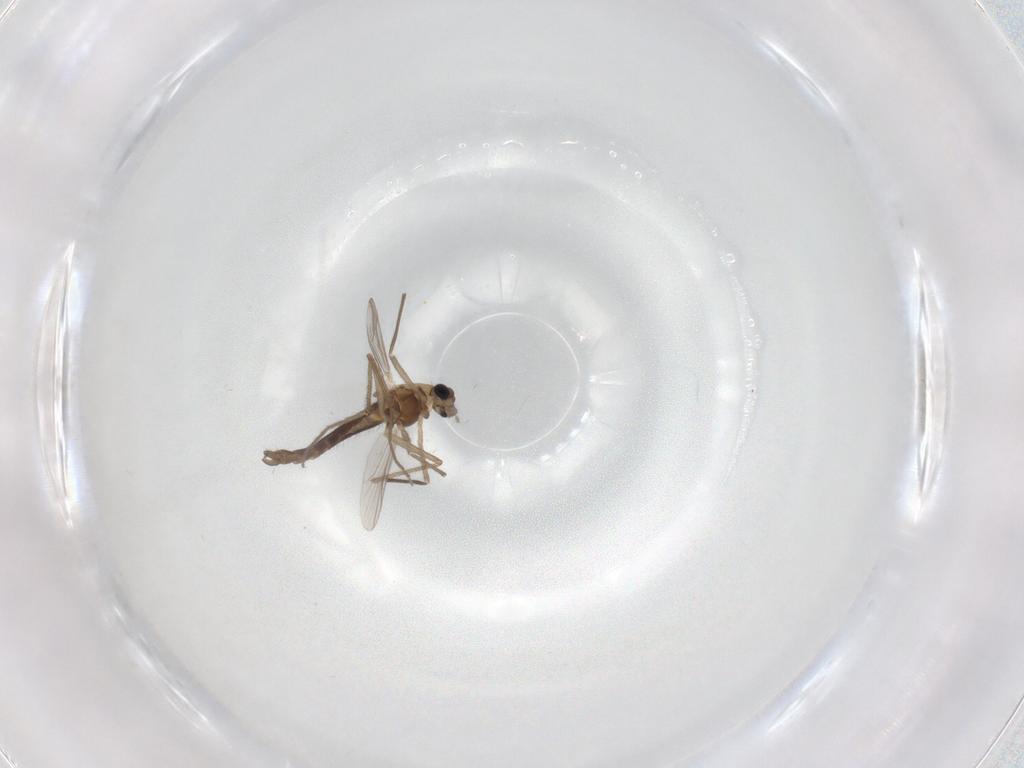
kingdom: Animalia
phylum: Arthropoda
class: Insecta
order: Diptera
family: Chironomidae
